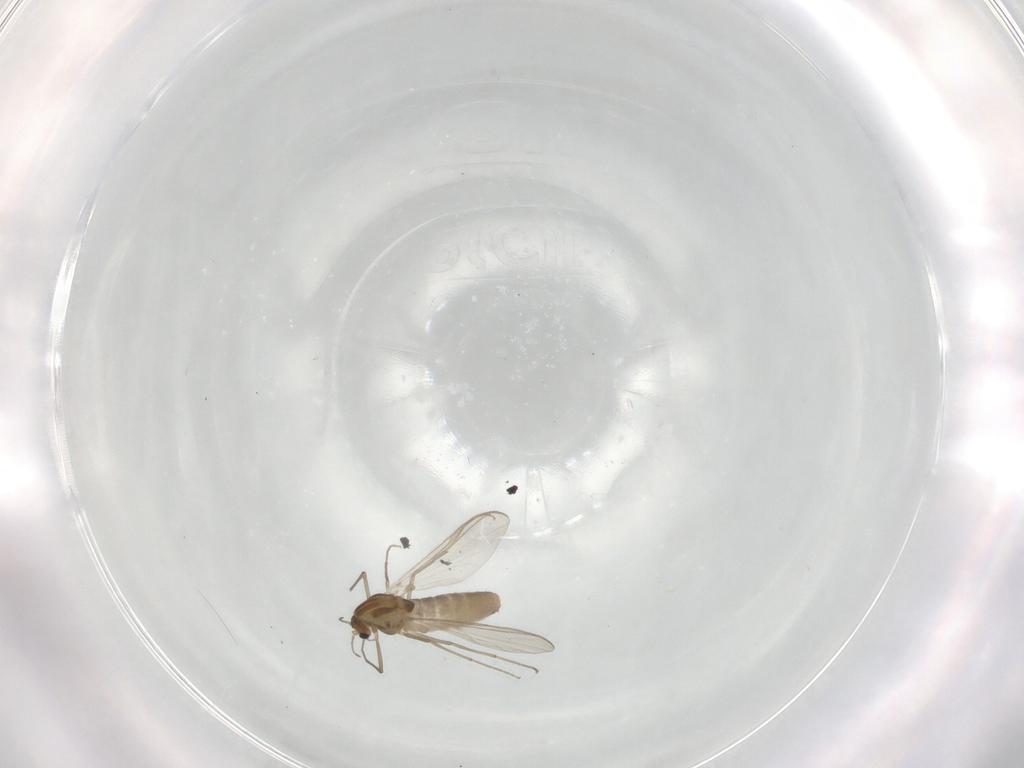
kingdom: Animalia
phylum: Arthropoda
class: Insecta
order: Diptera
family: Chironomidae
